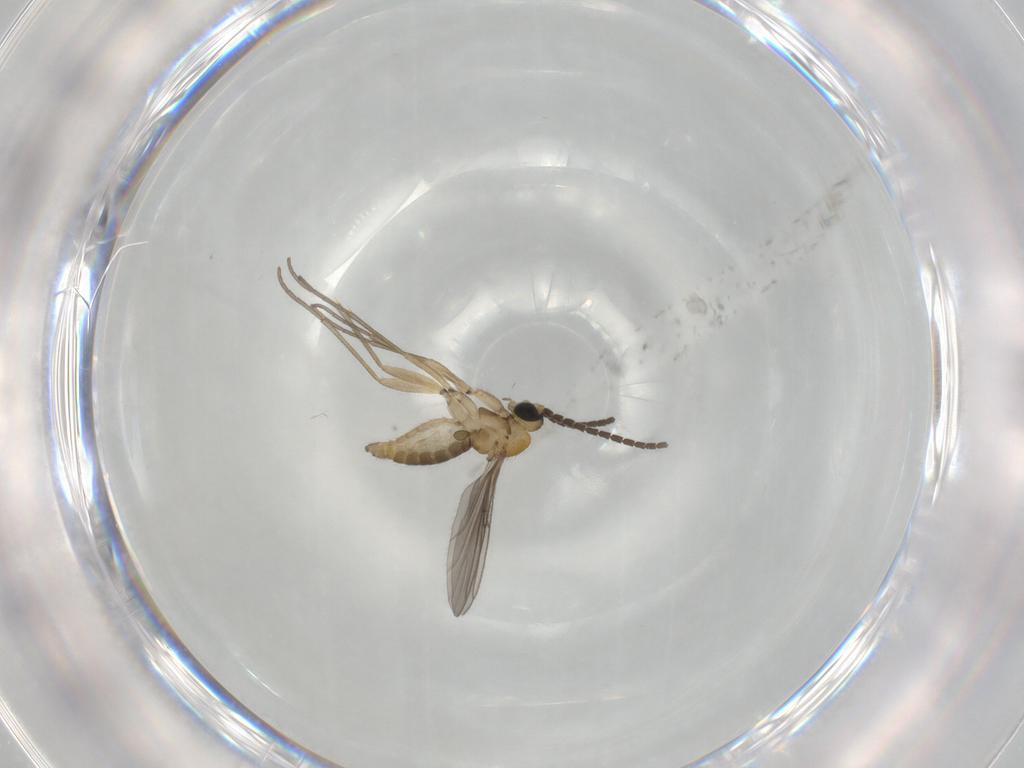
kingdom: Animalia
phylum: Arthropoda
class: Insecta
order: Diptera
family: Sciaridae
